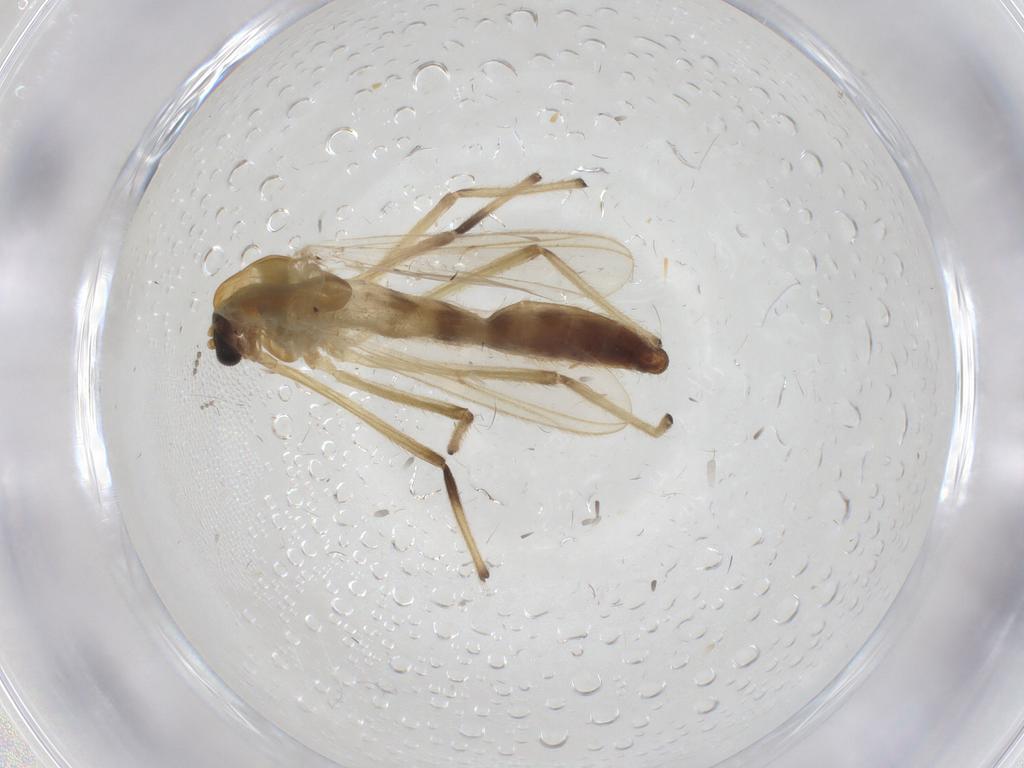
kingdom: Animalia
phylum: Arthropoda
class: Insecta
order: Diptera
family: Chironomidae
